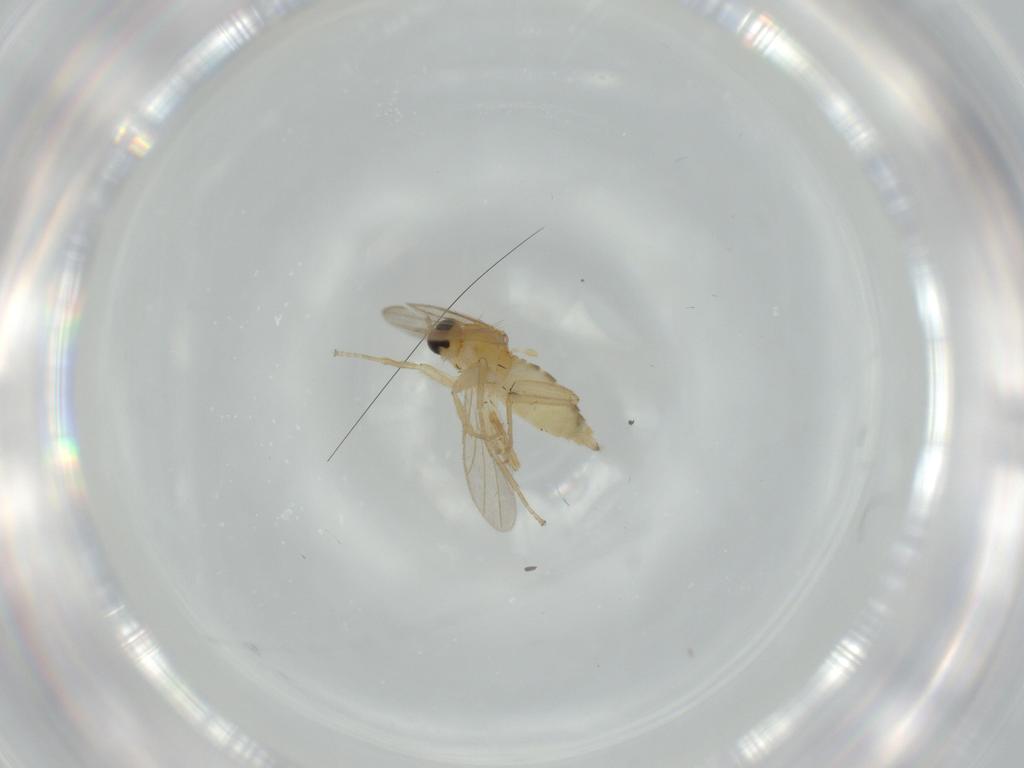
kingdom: Animalia
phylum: Arthropoda
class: Insecta
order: Diptera
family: Hybotidae
